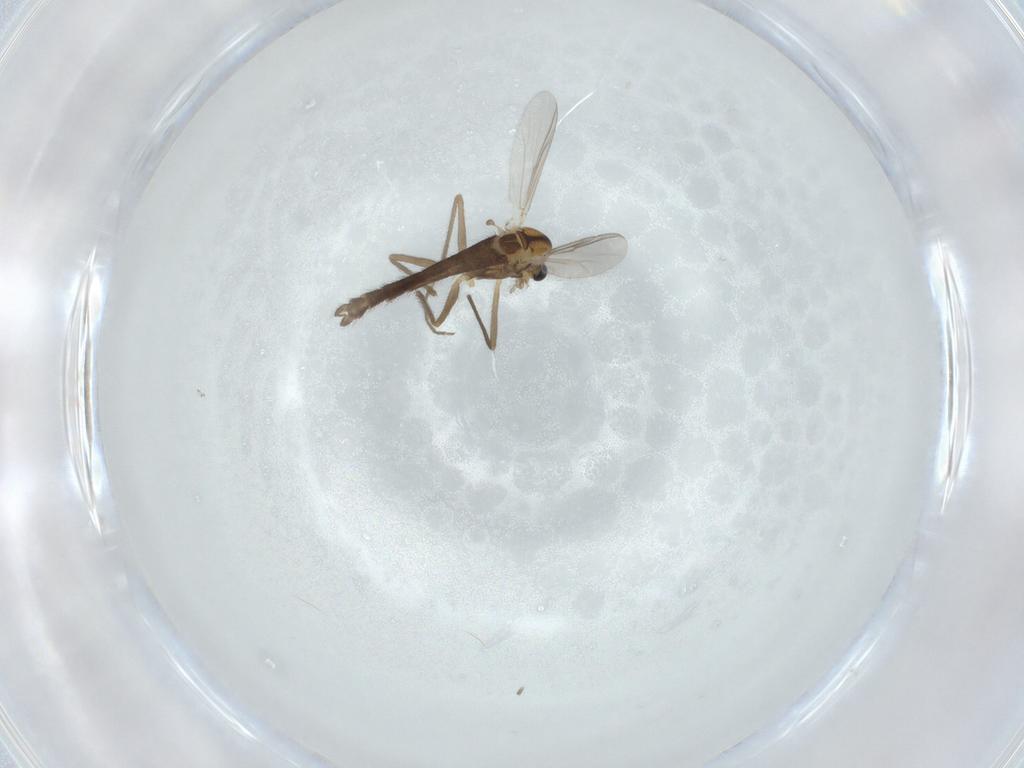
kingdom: Animalia
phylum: Arthropoda
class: Insecta
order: Diptera
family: Chironomidae
